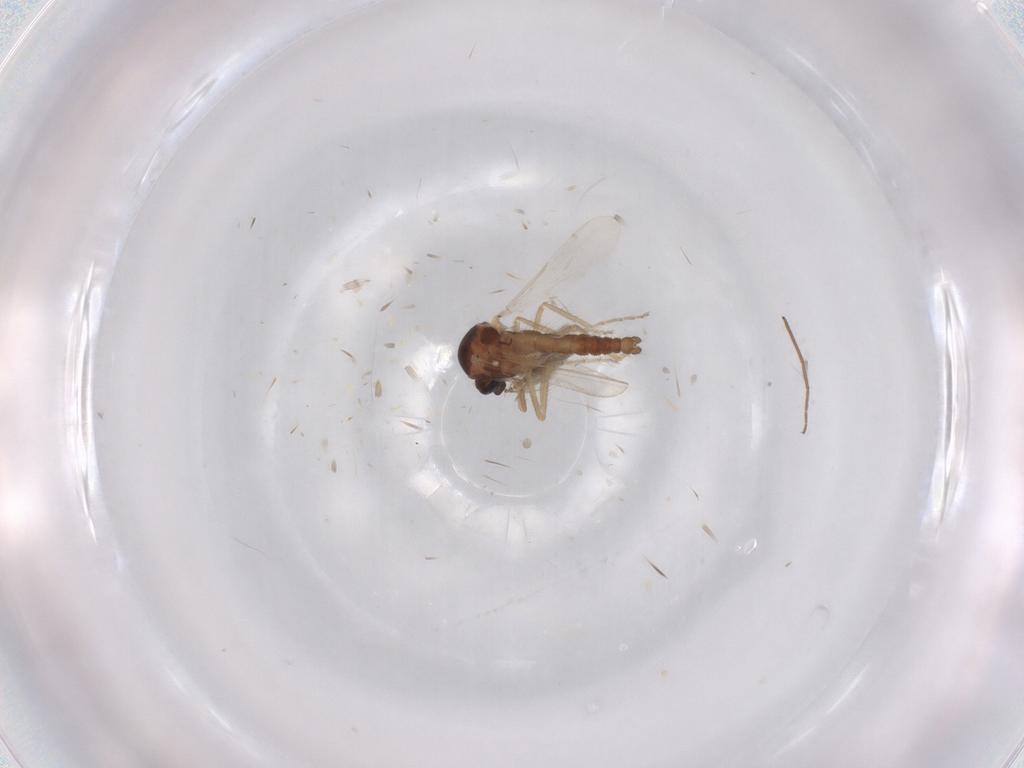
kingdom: Animalia
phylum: Arthropoda
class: Insecta
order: Diptera
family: Ceratopogonidae
